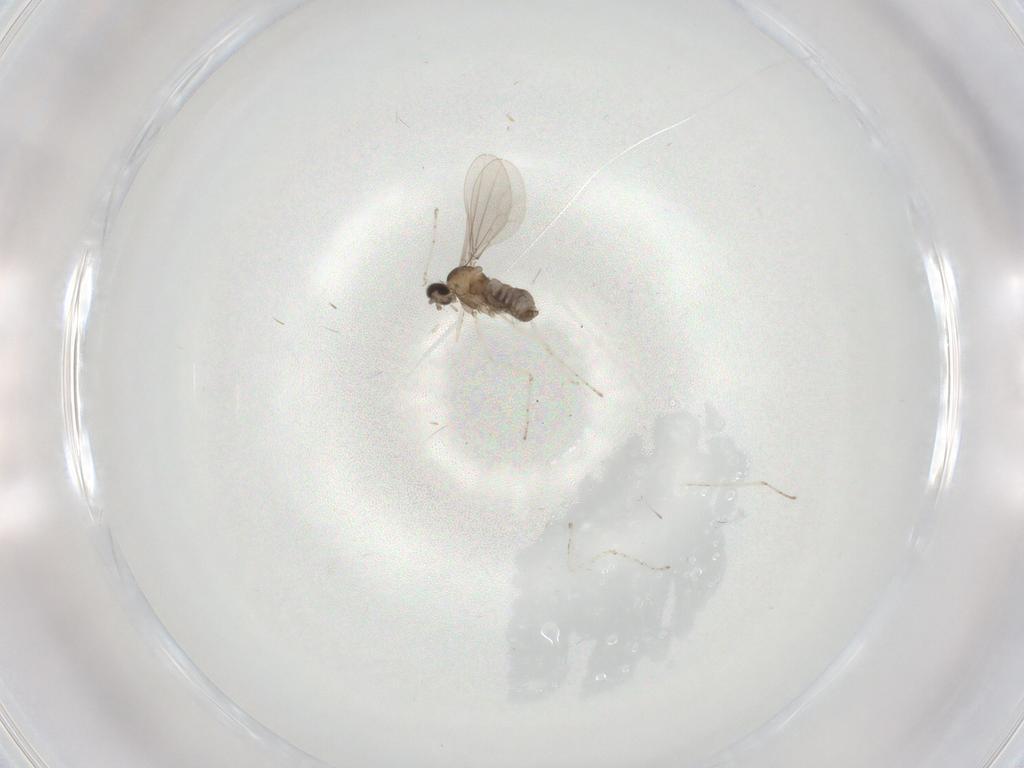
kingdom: Animalia
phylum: Arthropoda
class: Insecta
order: Diptera
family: Cecidomyiidae
